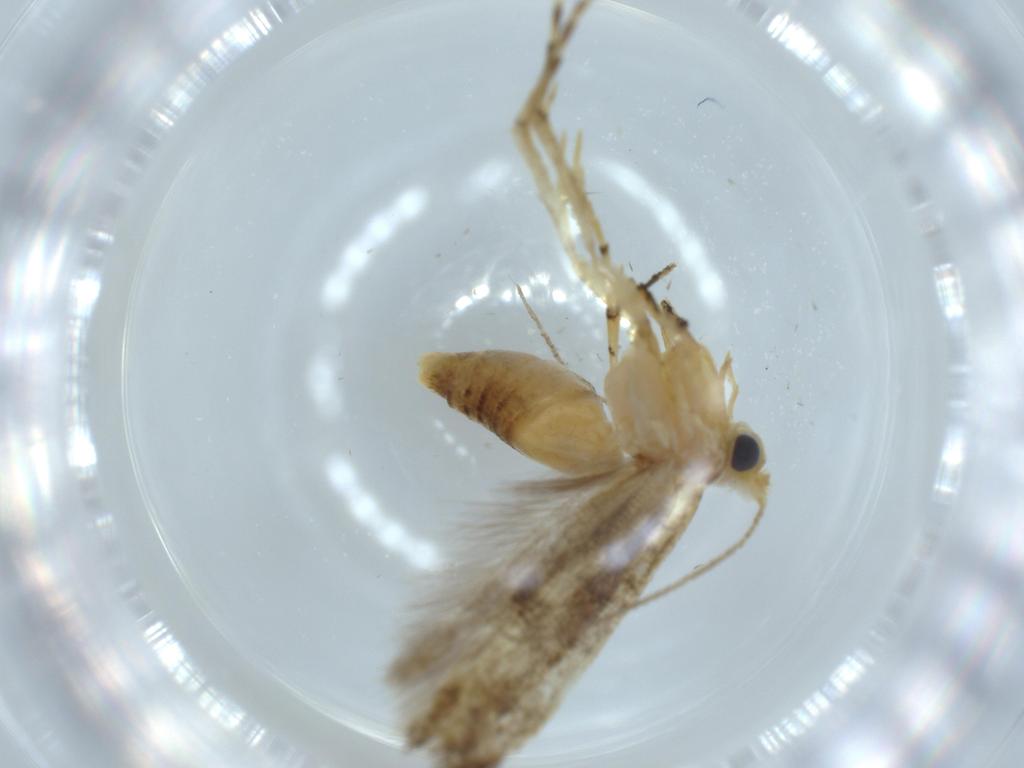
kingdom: Animalia
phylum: Arthropoda
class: Insecta
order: Lepidoptera
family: Argyresthiidae
